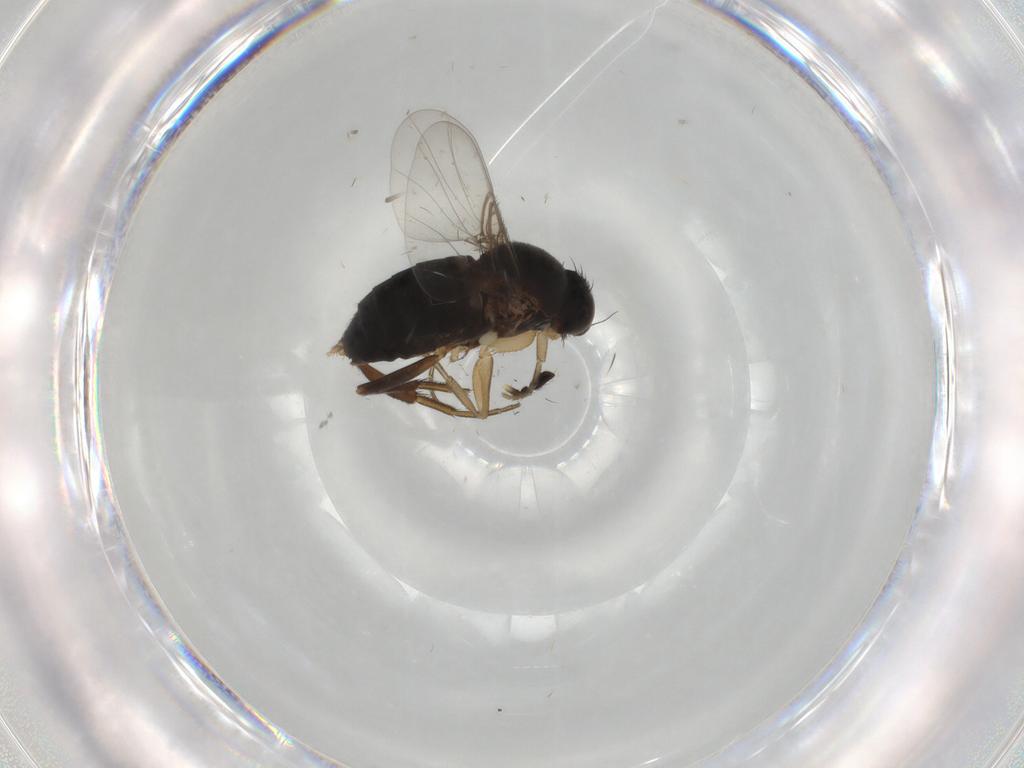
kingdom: Animalia
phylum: Arthropoda
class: Insecta
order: Diptera
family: Phoridae
